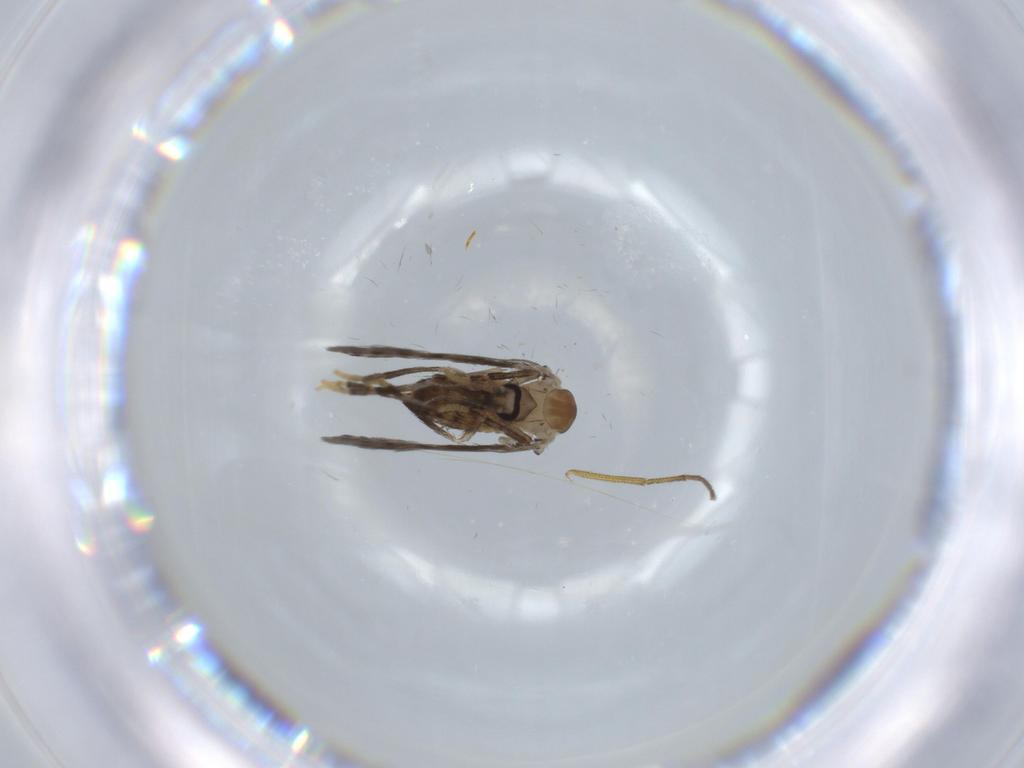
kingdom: Animalia
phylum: Arthropoda
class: Insecta
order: Diptera
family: Psychodidae
